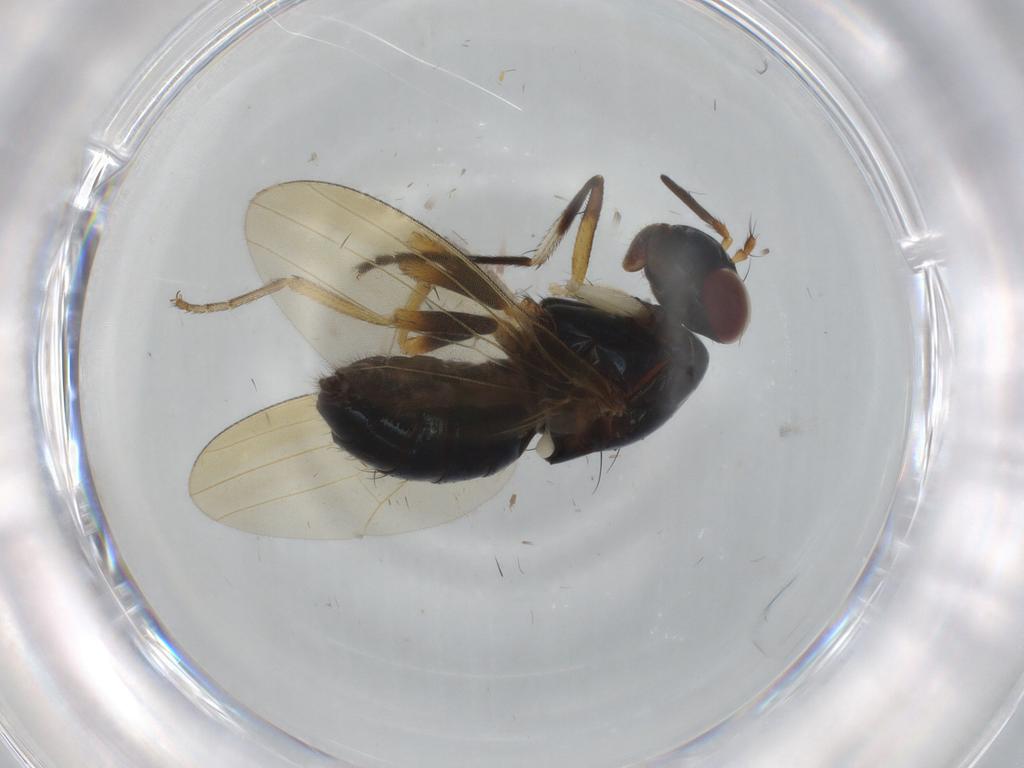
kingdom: Animalia
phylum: Arthropoda
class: Insecta
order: Diptera
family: Lauxaniidae
